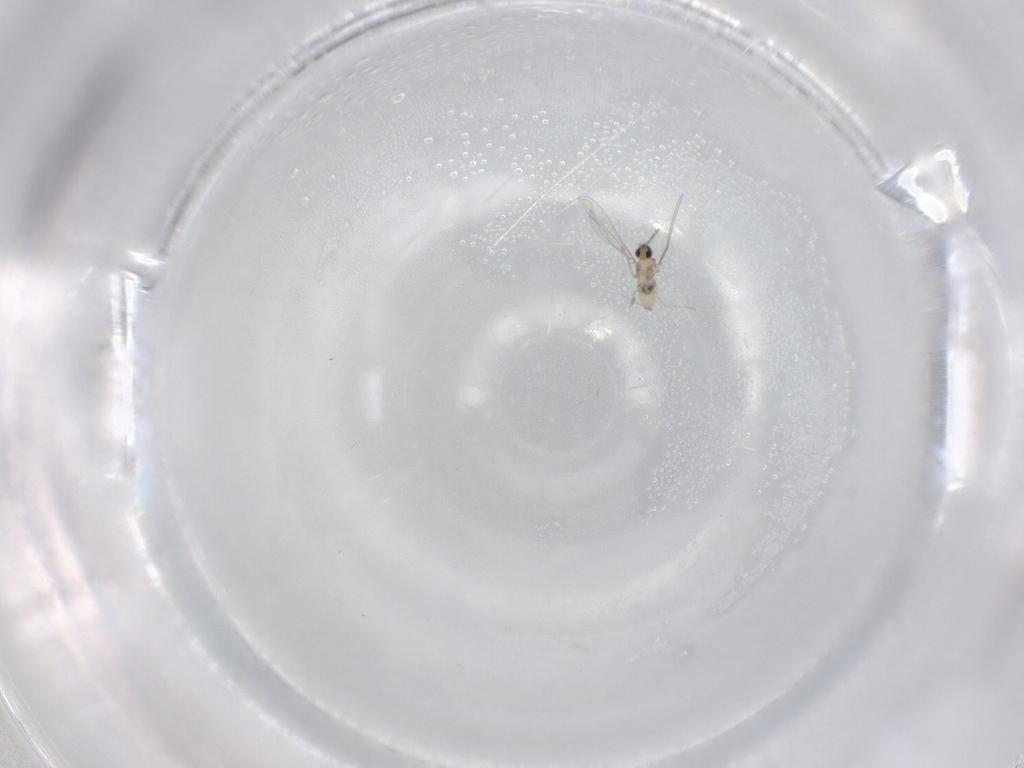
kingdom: Animalia
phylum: Arthropoda
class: Insecta
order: Diptera
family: Cecidomyiidae
